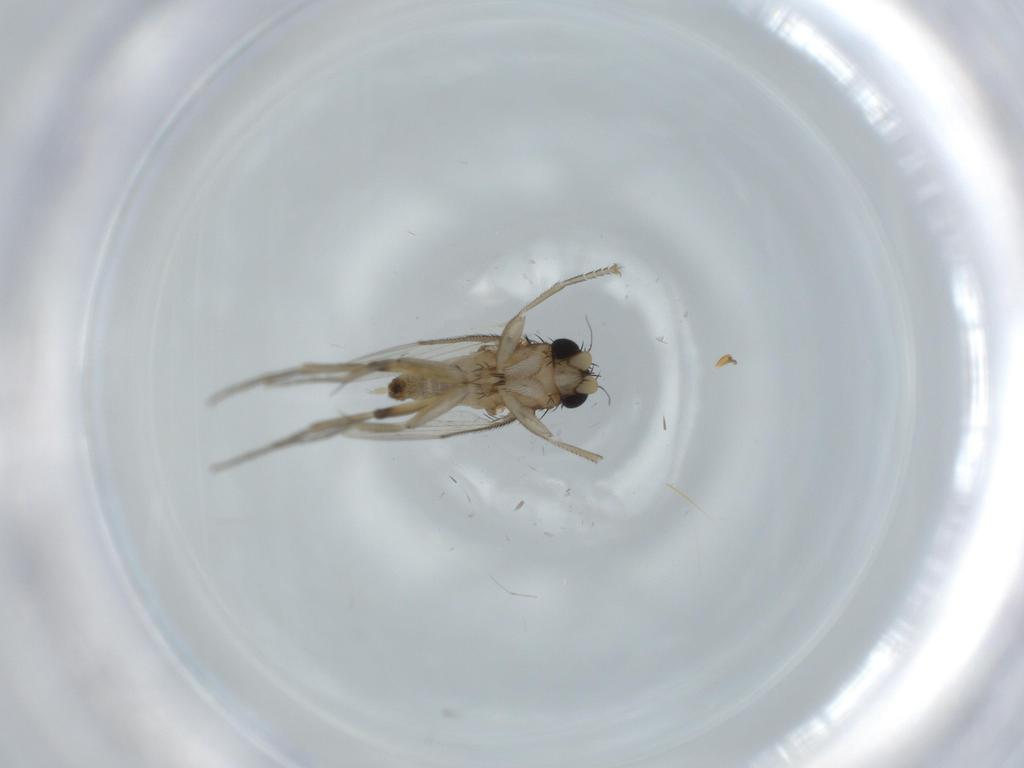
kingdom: Animalia
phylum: Arthropoda
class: Insecta
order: Diptera
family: Phoridae
